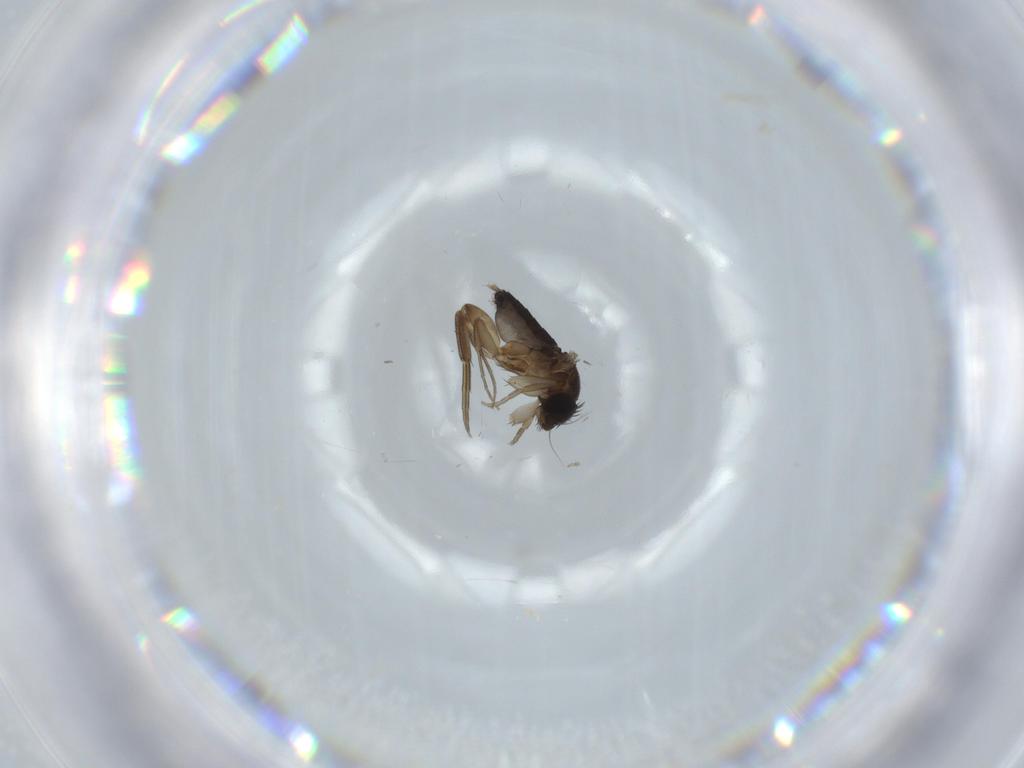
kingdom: Animalia
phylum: Arthropoda
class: Insecta
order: Diptera
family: Phoridae
